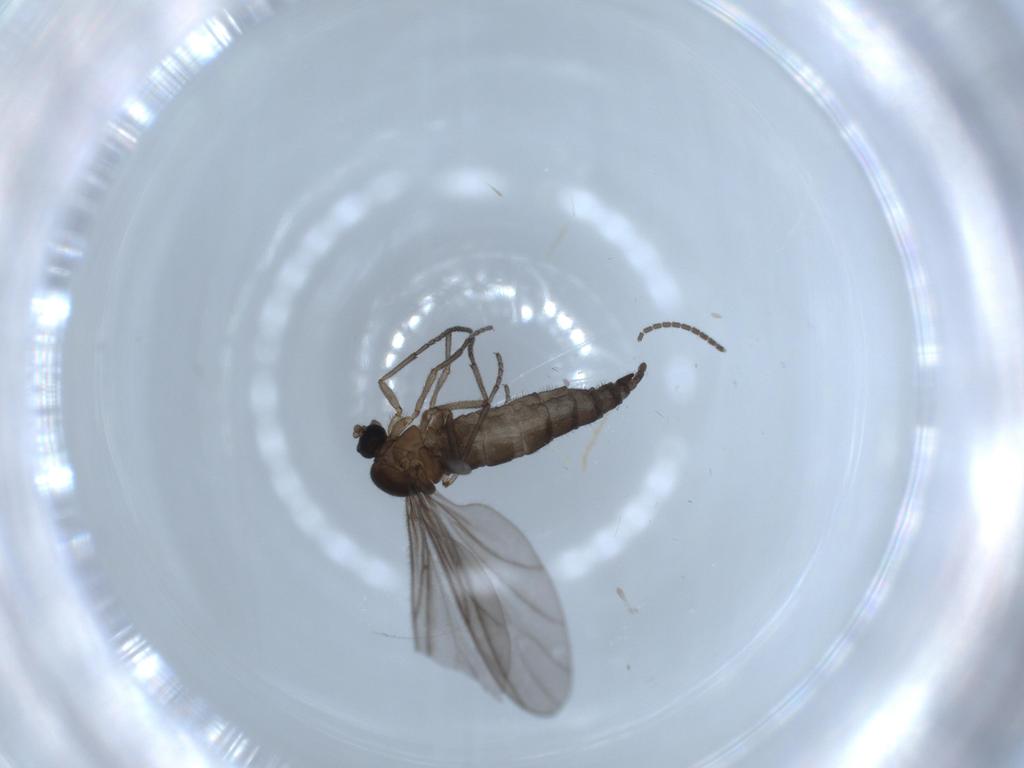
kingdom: Animalia
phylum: Arthropoda
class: Insecta
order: Diptera
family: Sciaridae
